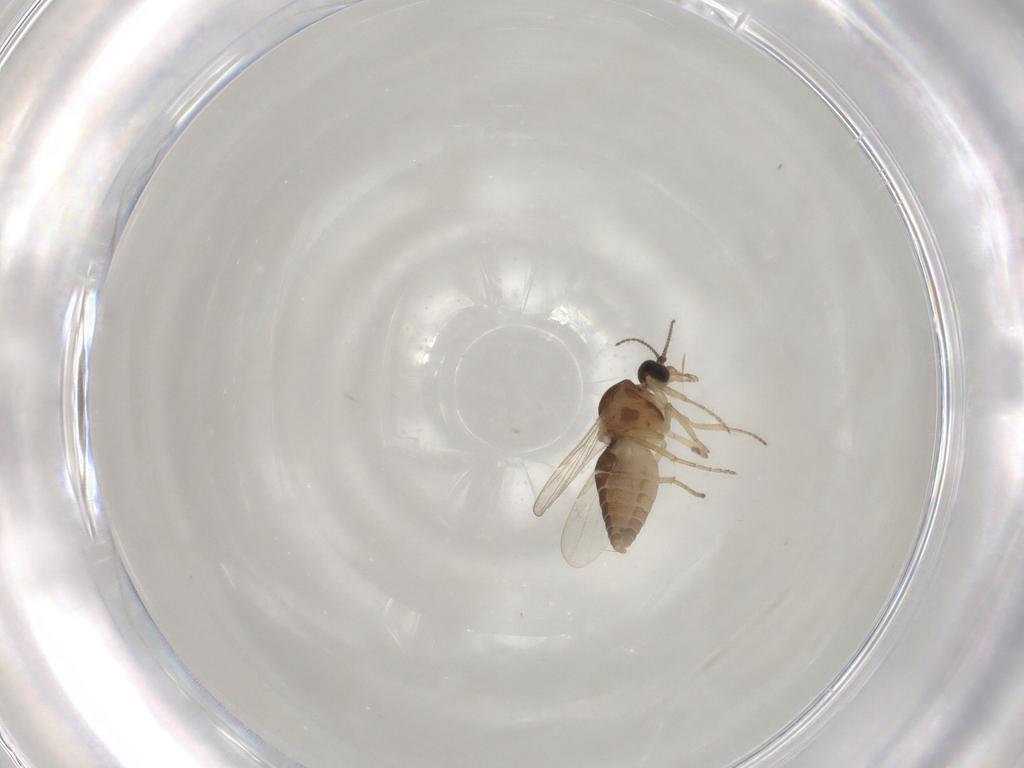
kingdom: Animalia
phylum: Arthropoda
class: Insecta
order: Diptera
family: Ceratopogonidae
